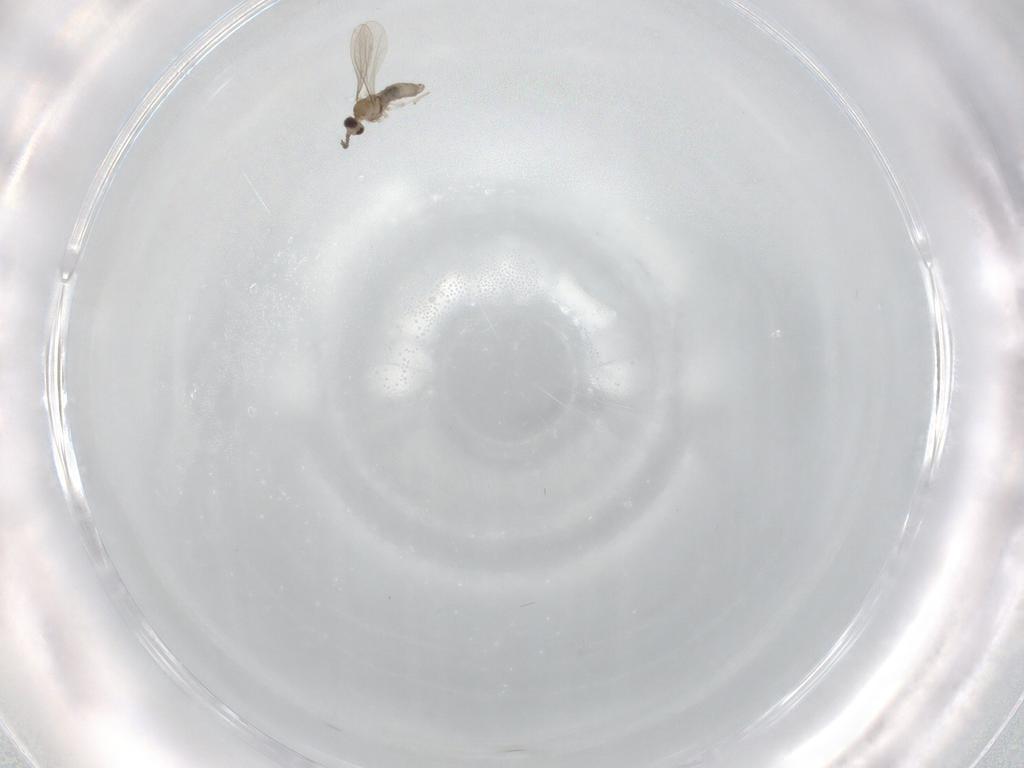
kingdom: Animalia
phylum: Arthropoda
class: Insecta
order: Diptera
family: Cecidomyiidae
